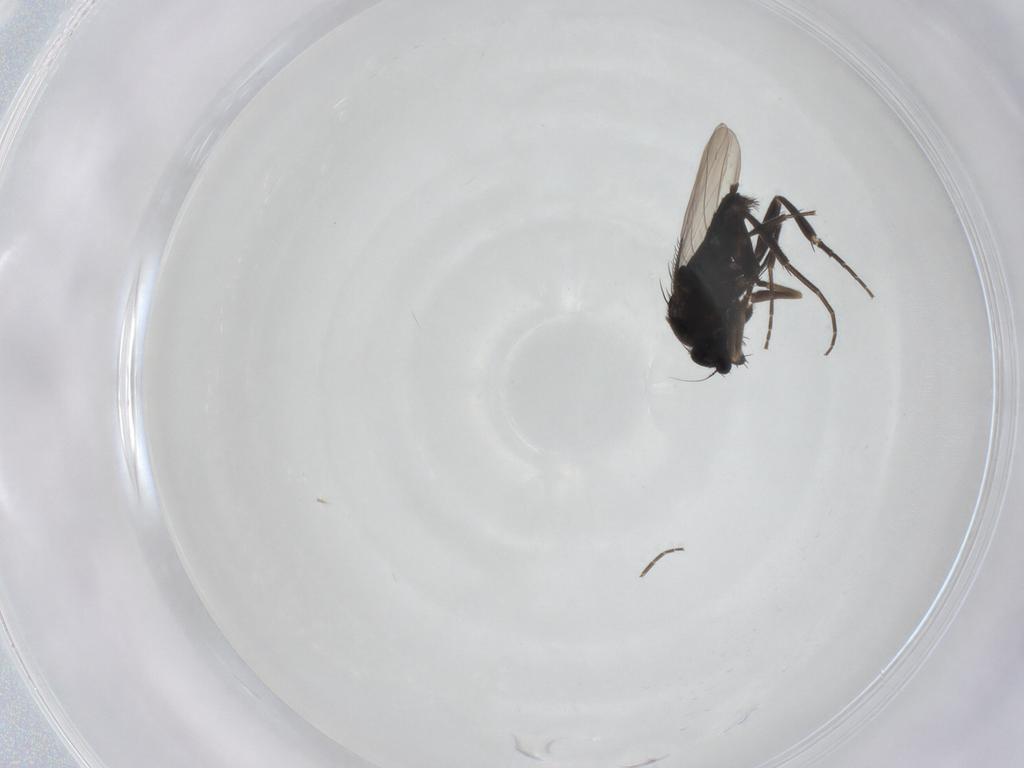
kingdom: Animalia
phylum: Arthropoda
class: Insecta
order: Diptera
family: Phoridae
